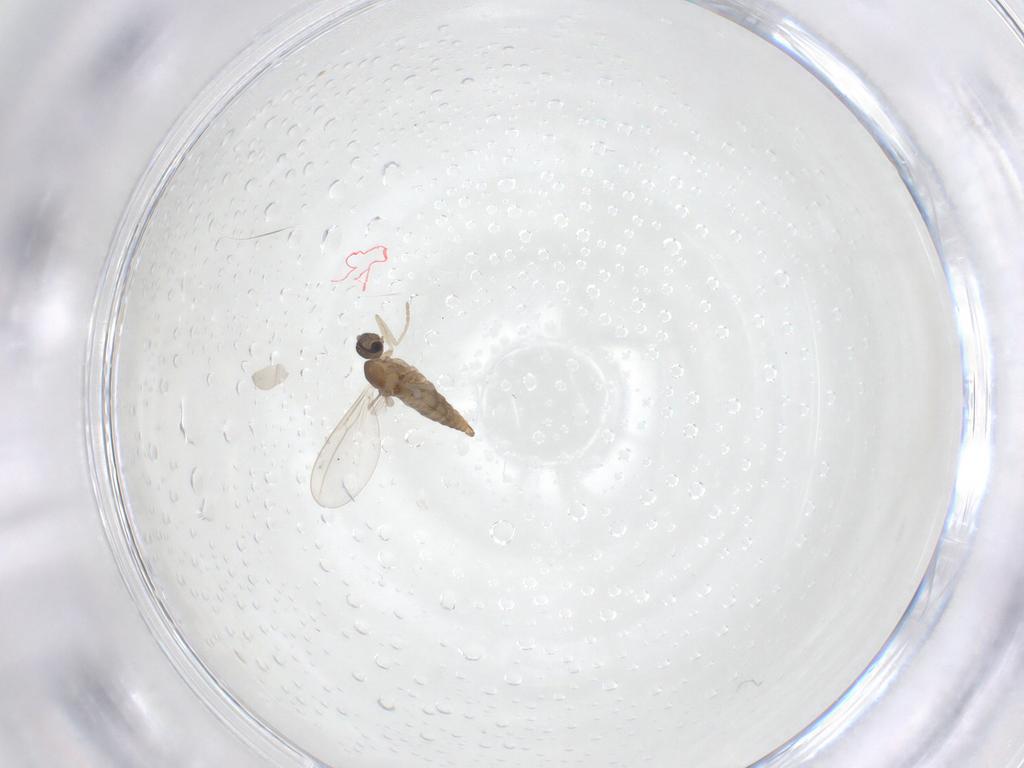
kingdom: Animalia
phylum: Arthropoda
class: Insecta
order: Diptera
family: Cecidomyiidae
